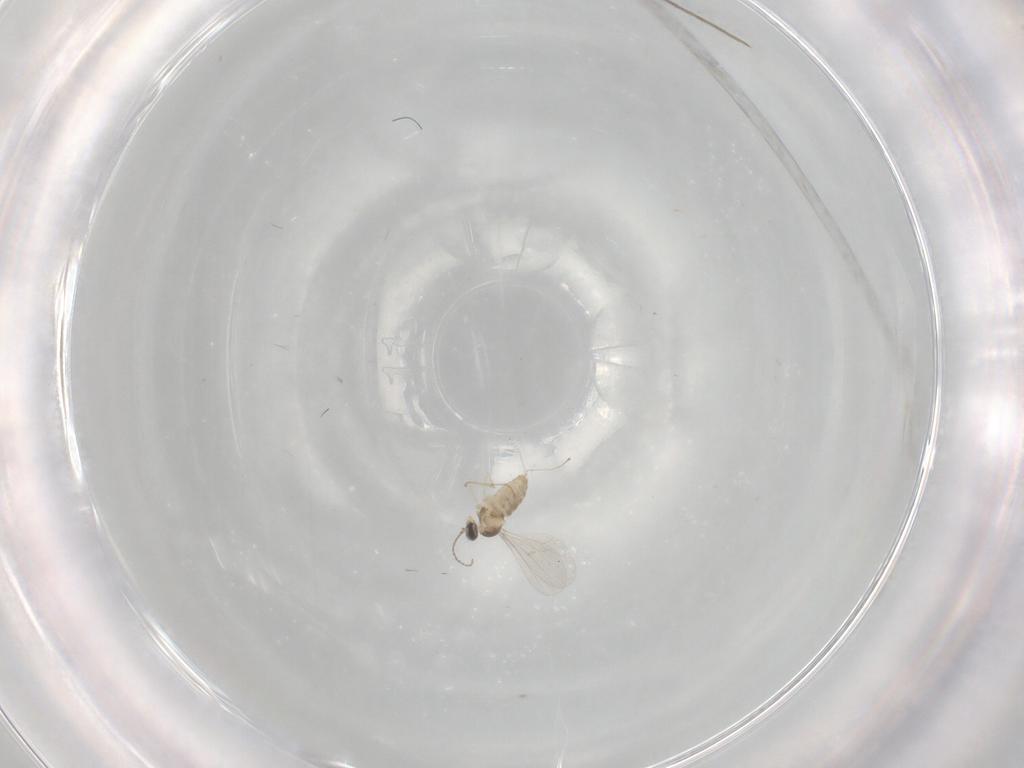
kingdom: Animalia
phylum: Arthropoda
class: Insecta
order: Diptera
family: Cecidomyiidae
